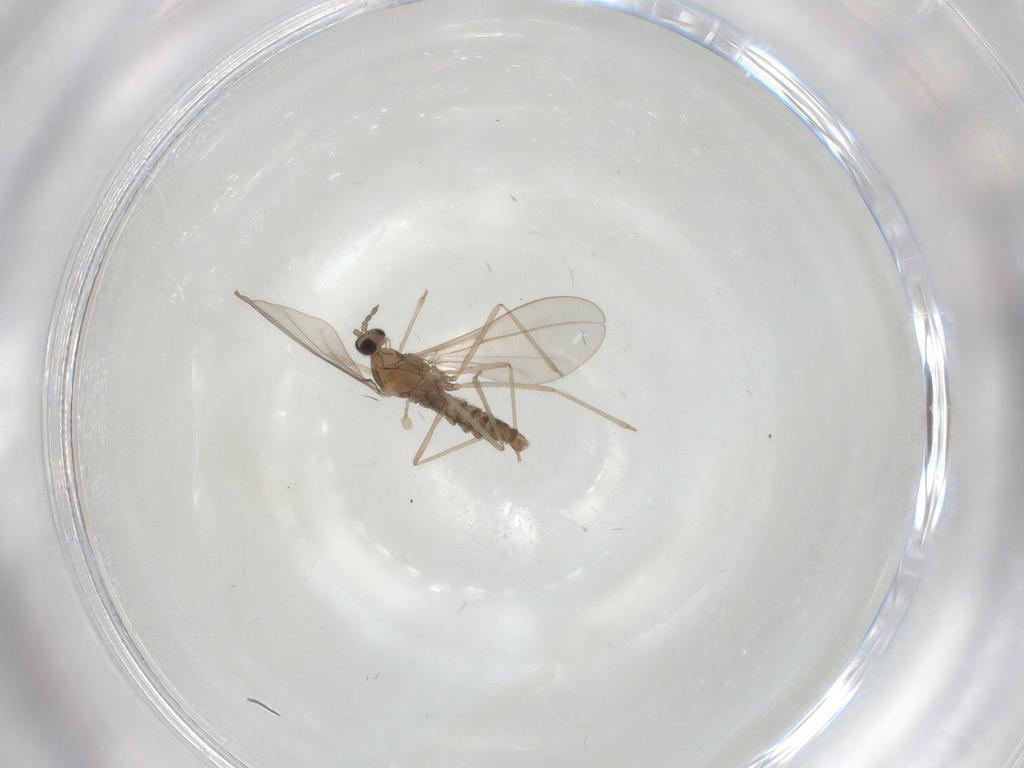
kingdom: Animalia
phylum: Arthropoda
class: Insecta
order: Diptera
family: Cecidomyiidae
